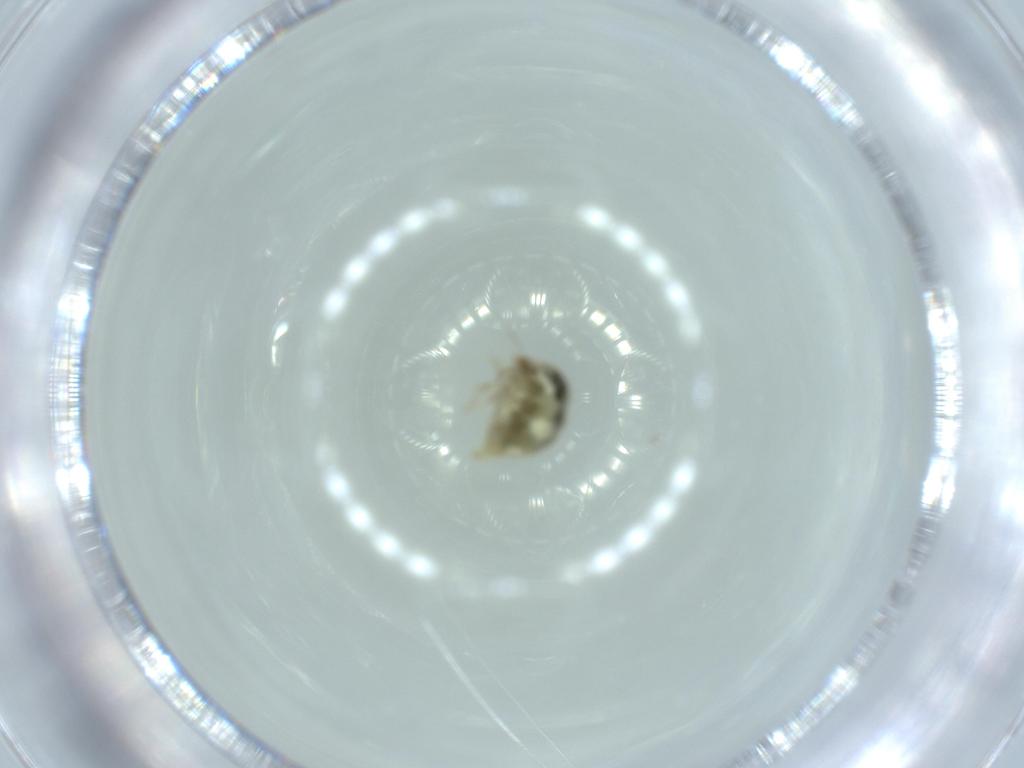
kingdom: Animalia
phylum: Arthropoda
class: Insecta
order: Neuroptera
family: Coniopterygidae
